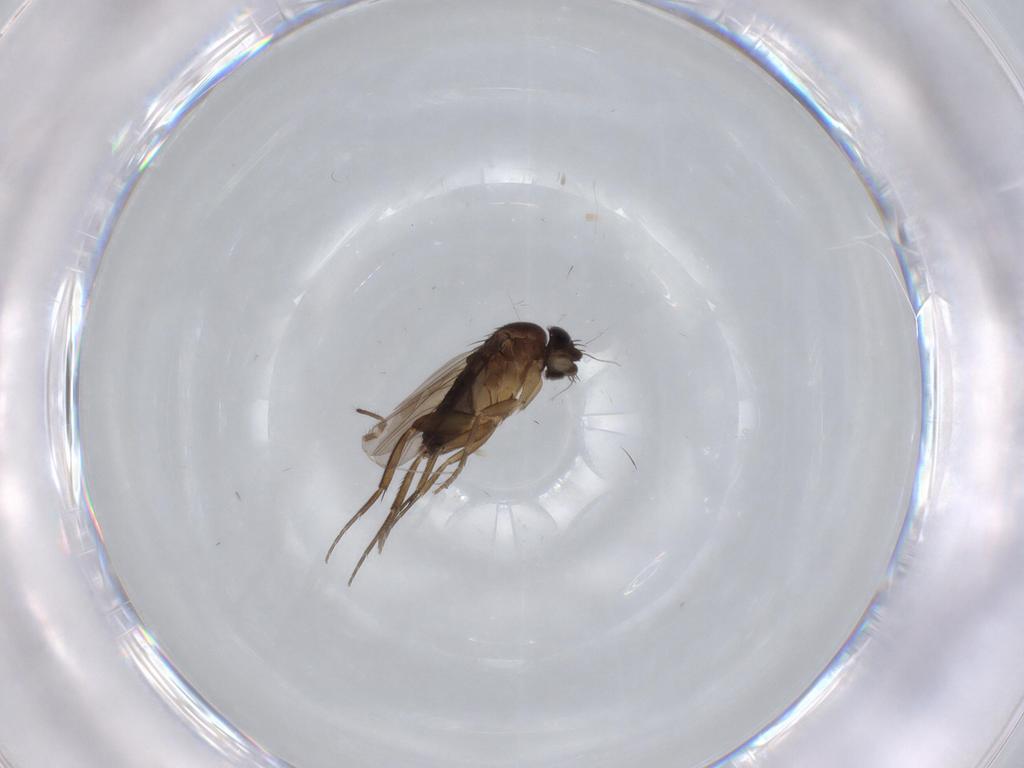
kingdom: Animalia
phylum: Arthropoda
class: Insecta
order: Diptera
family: Phoridae
